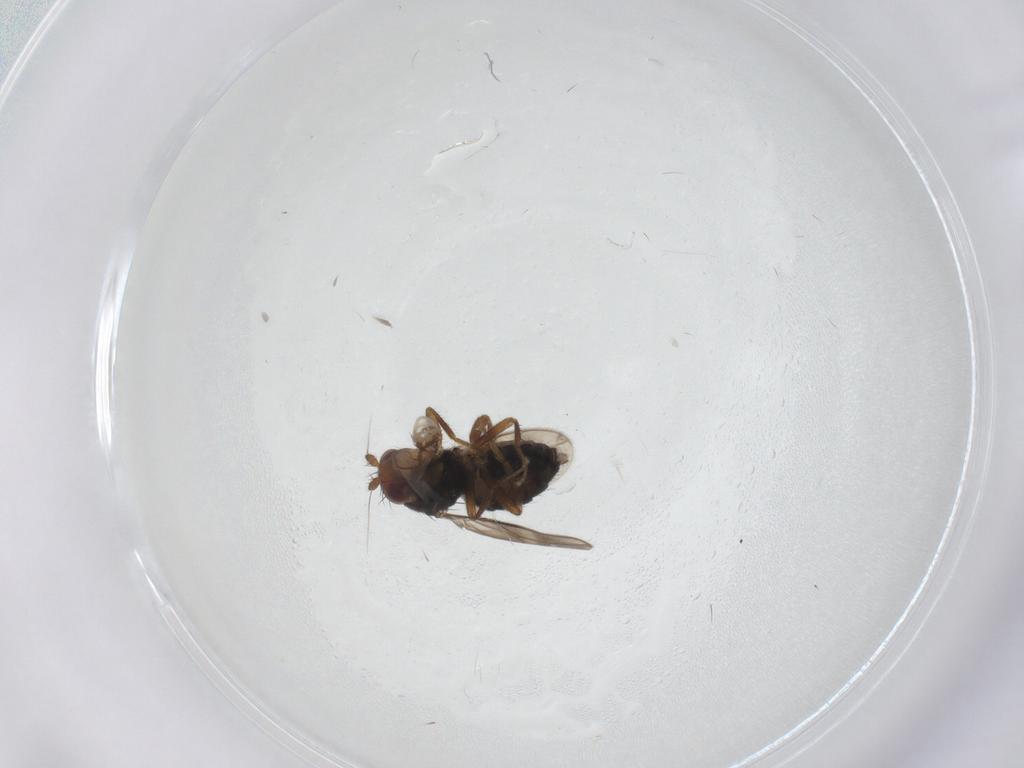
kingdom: Animalia
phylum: Arthropoda
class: Insecta
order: Diptera
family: Sphaeroceridae
